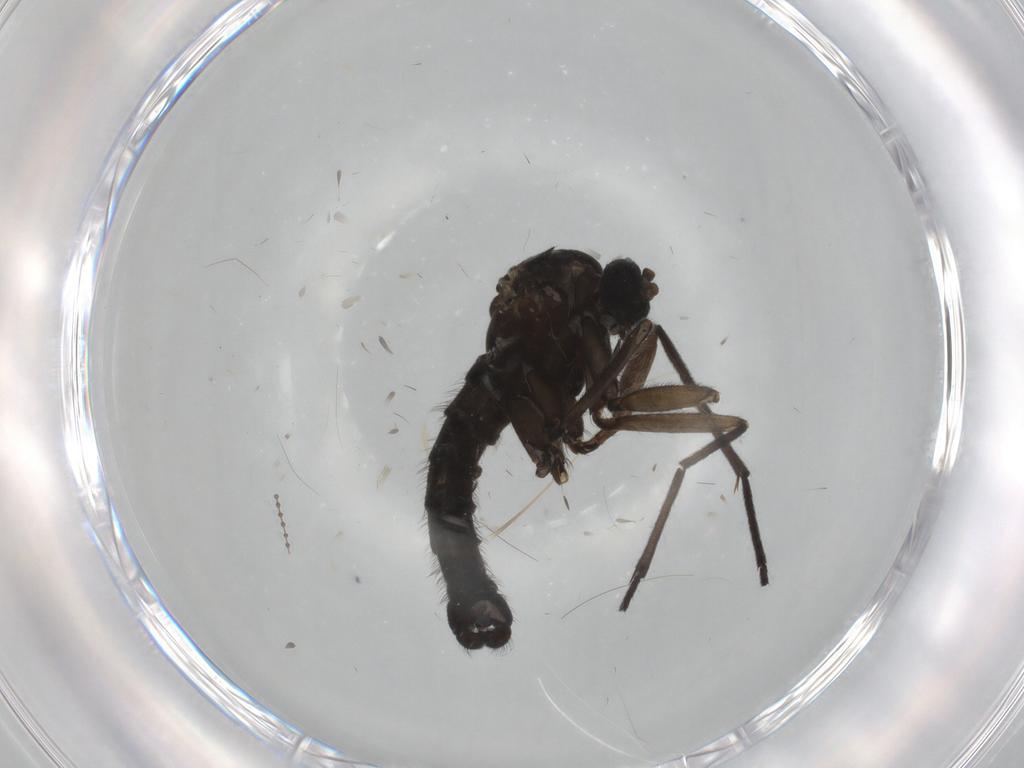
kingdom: Animalia
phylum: Arthropoda
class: Insecta
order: Diptera
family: Sciaridae
